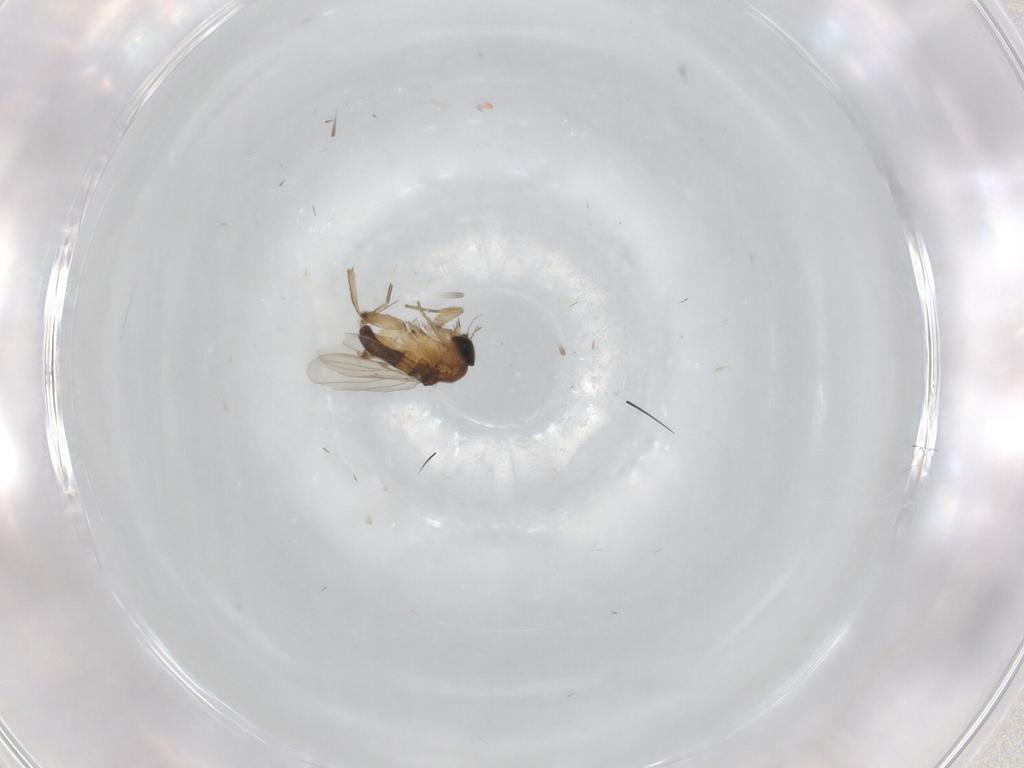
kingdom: Animalia
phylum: Arthropoda
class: Insecta
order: Diptera
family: Phoridae
